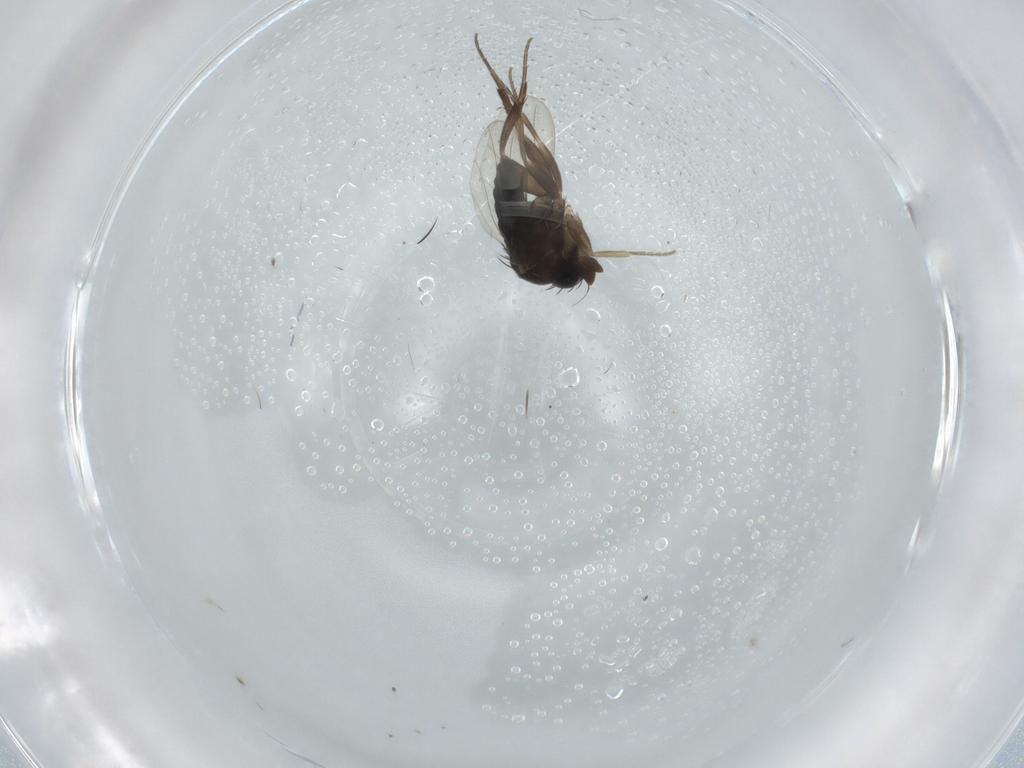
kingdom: Animalia
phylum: Arthropoda
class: Insecta
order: Diptera
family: Phoridae
